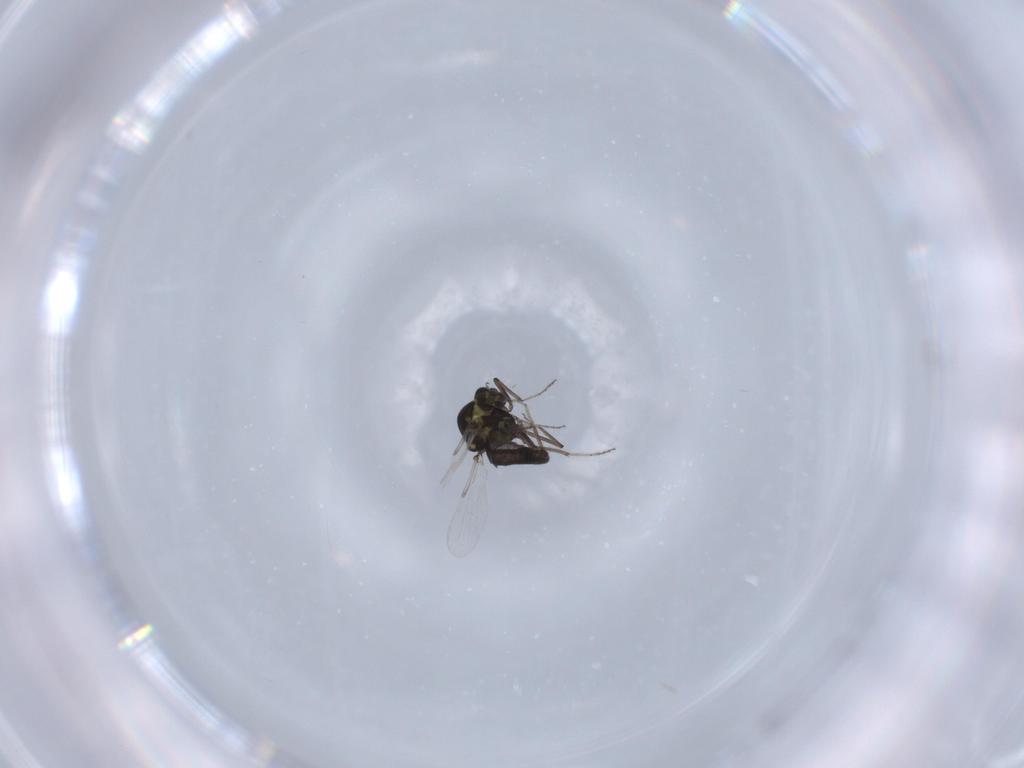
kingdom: Animalia
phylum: Arthropoda
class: Insecta
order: Diptera
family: Ceratopogonidae
